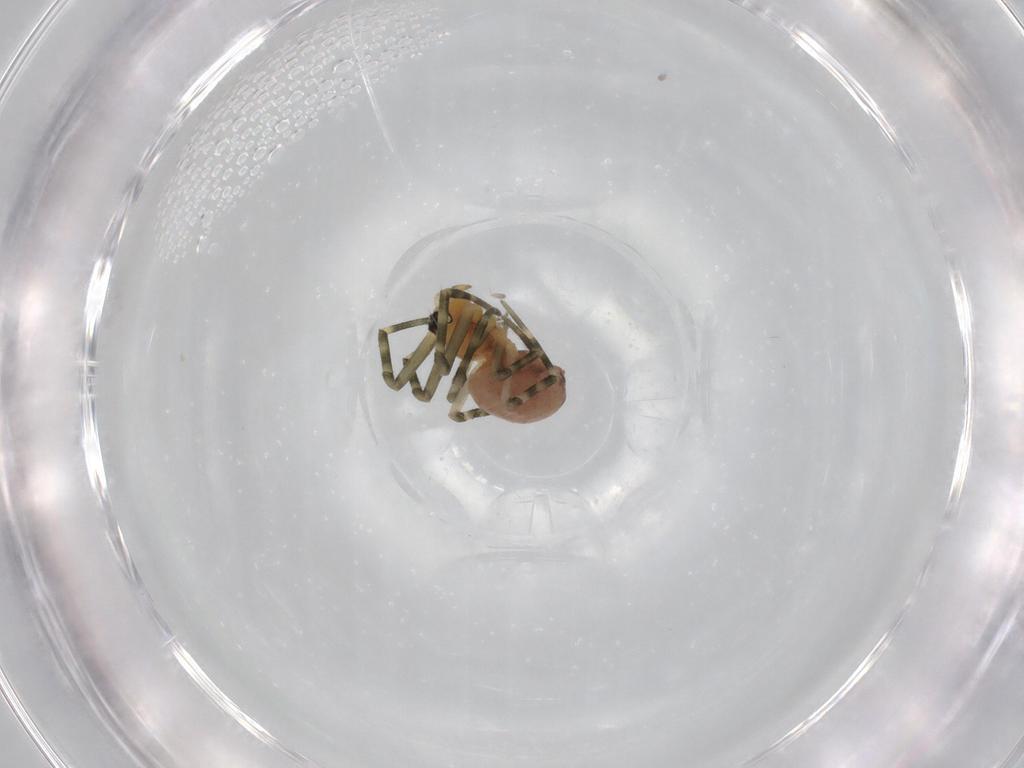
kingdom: Animalia
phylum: Arthropoda
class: Arachnida
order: Araneae
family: Linyphiidae
